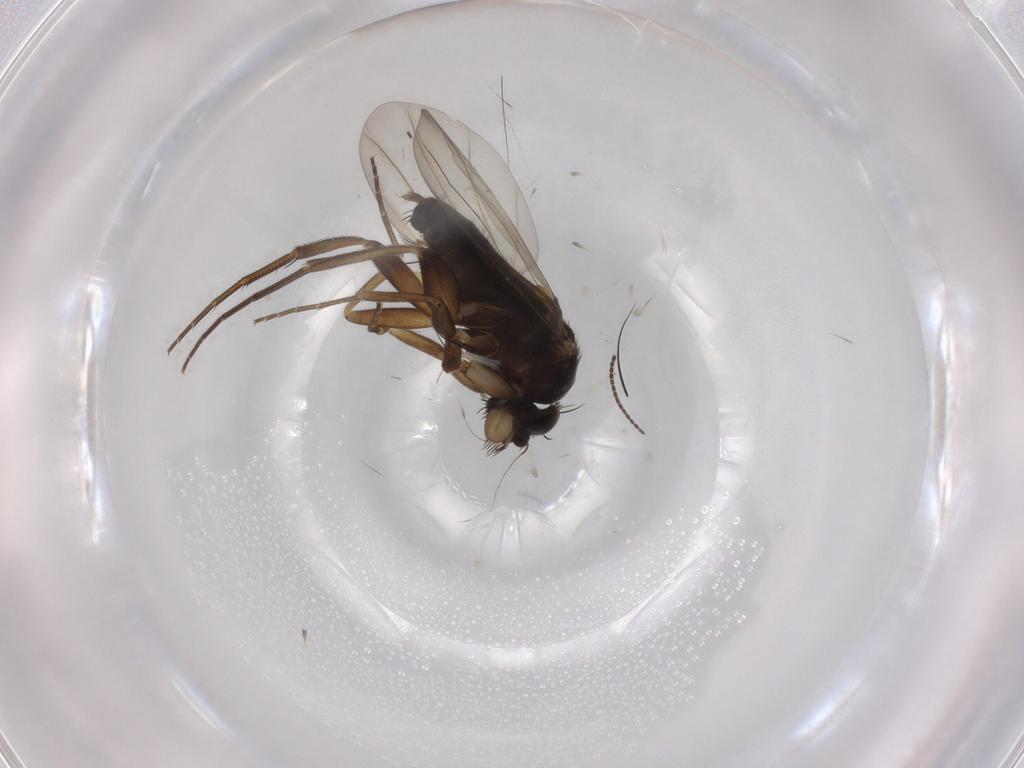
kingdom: Animalia
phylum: Arthropoda
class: Insecta
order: Diptera
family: Phoridae
